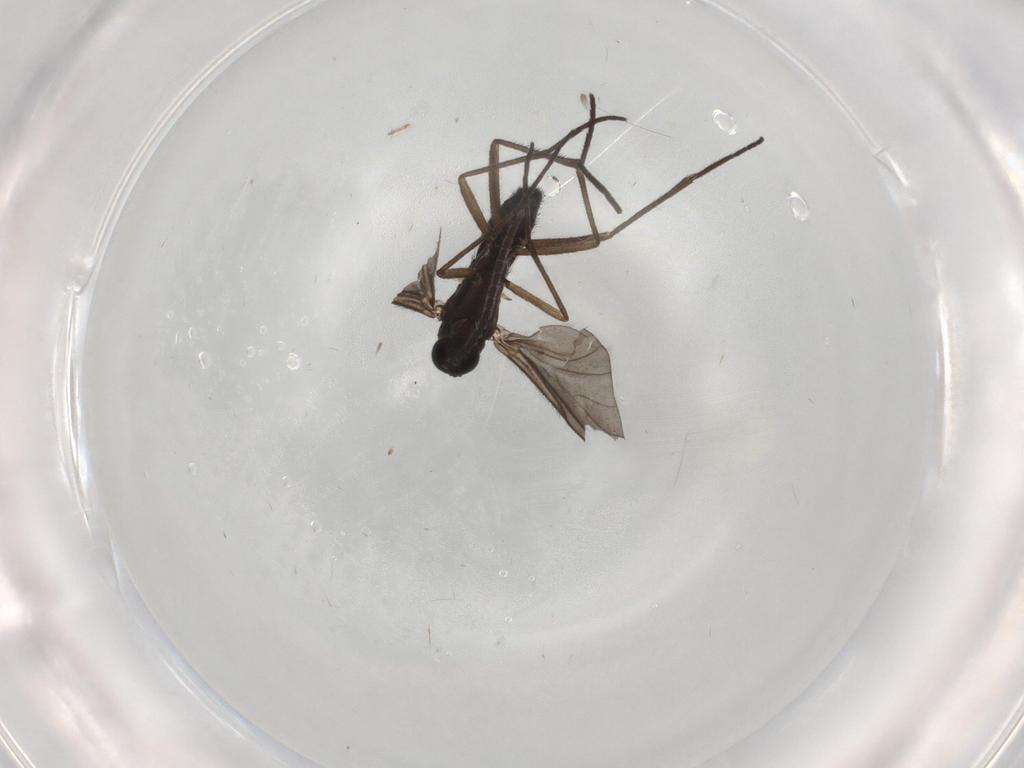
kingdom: Animalia
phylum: Arthropoda
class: Insecta
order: Diptera
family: Sciaridae
